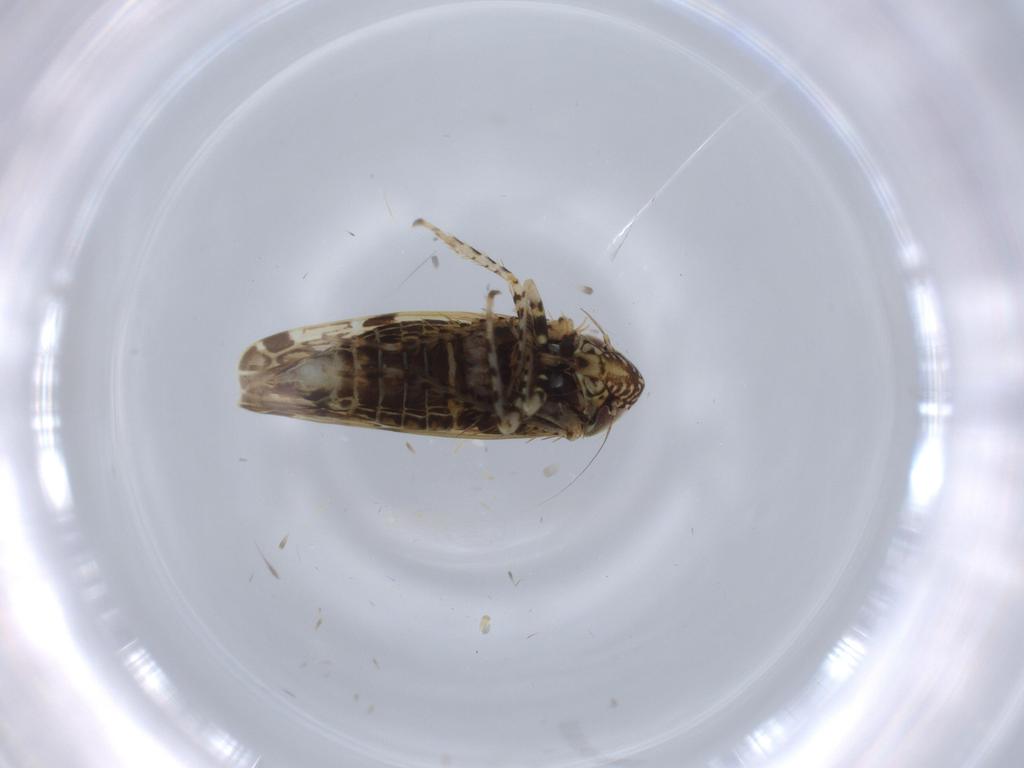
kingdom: Animalia
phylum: Arthropoda
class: Insecta
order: Hemiptera
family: Cicadellidae
